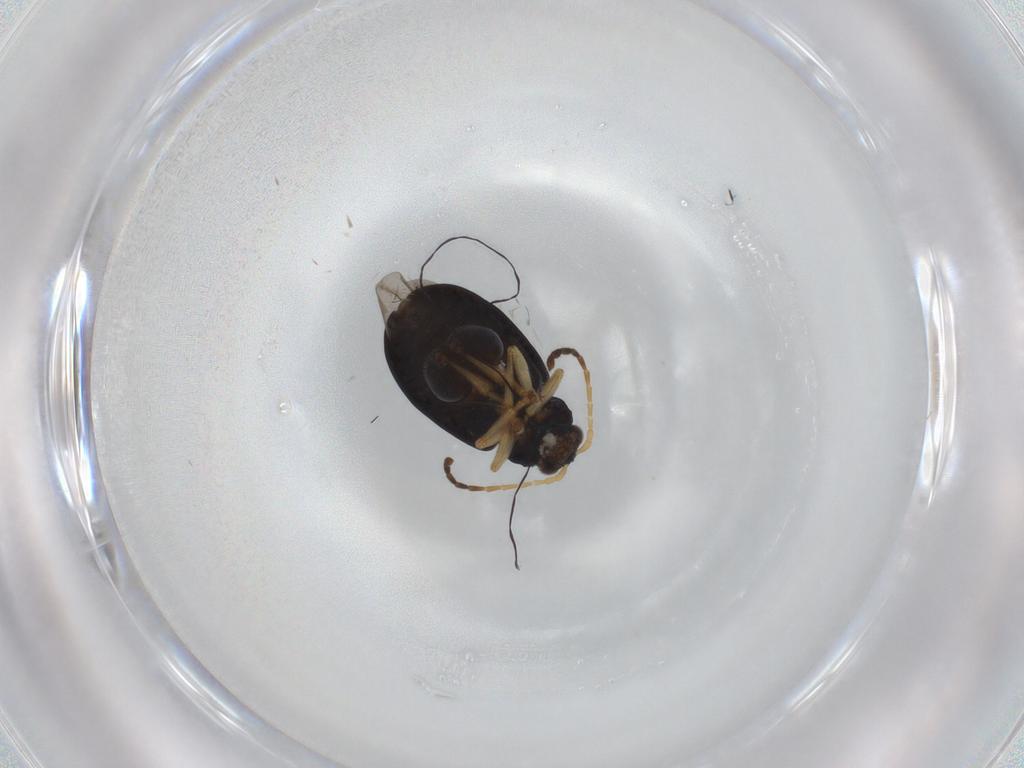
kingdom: Animalia
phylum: Arthropoda
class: Insecta
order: Coleoptera
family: Chrysomelidae
